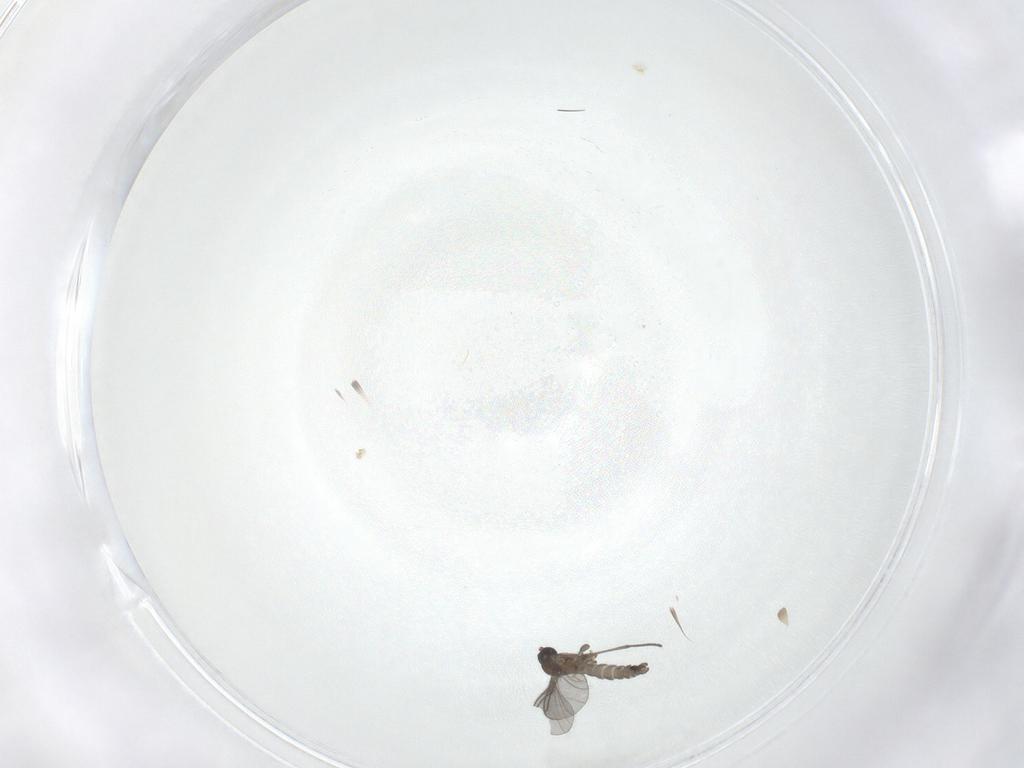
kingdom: Animalia
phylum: Arthropoda
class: Insecta
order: Diptera
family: Sciaridae
